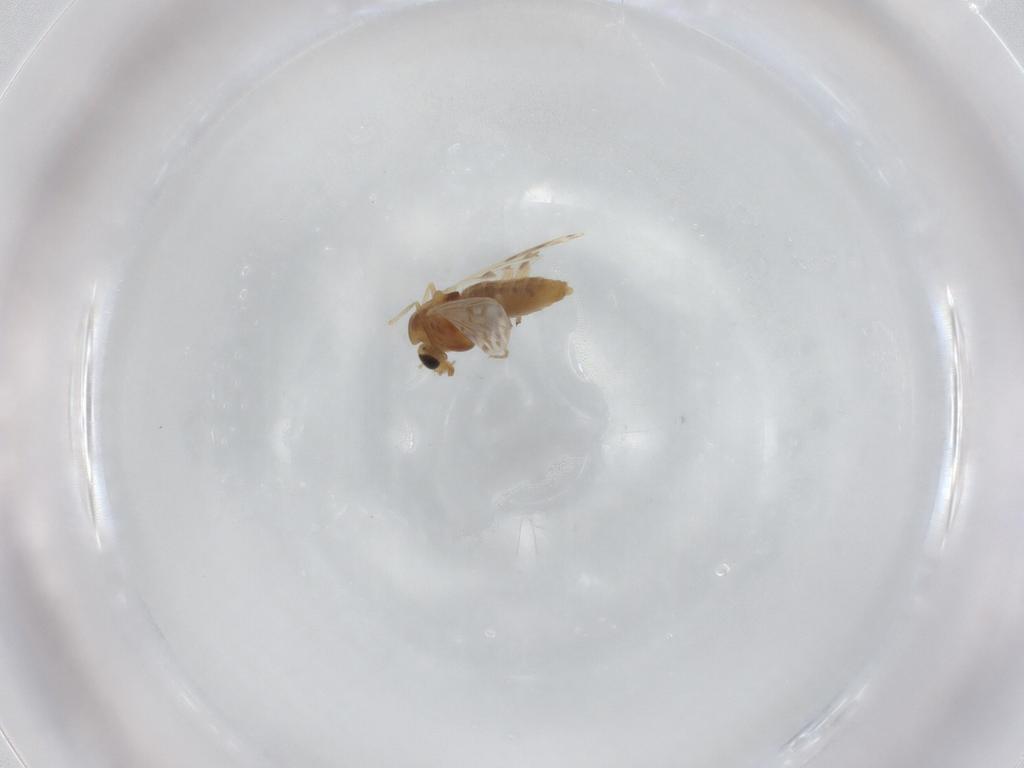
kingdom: Animalia
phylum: Arthropoda
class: Insecta
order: Diptera
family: Chironomidae
